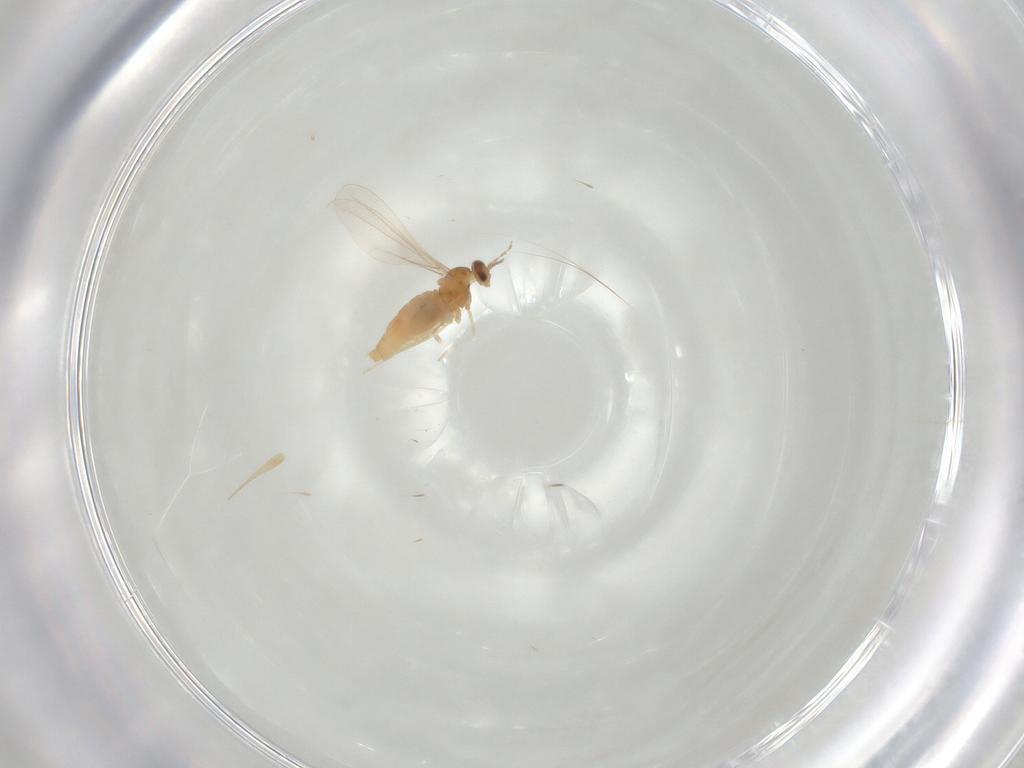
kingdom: Animalia
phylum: Arthropoda
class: Insecta
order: Diptera
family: Cecidomyiidae
